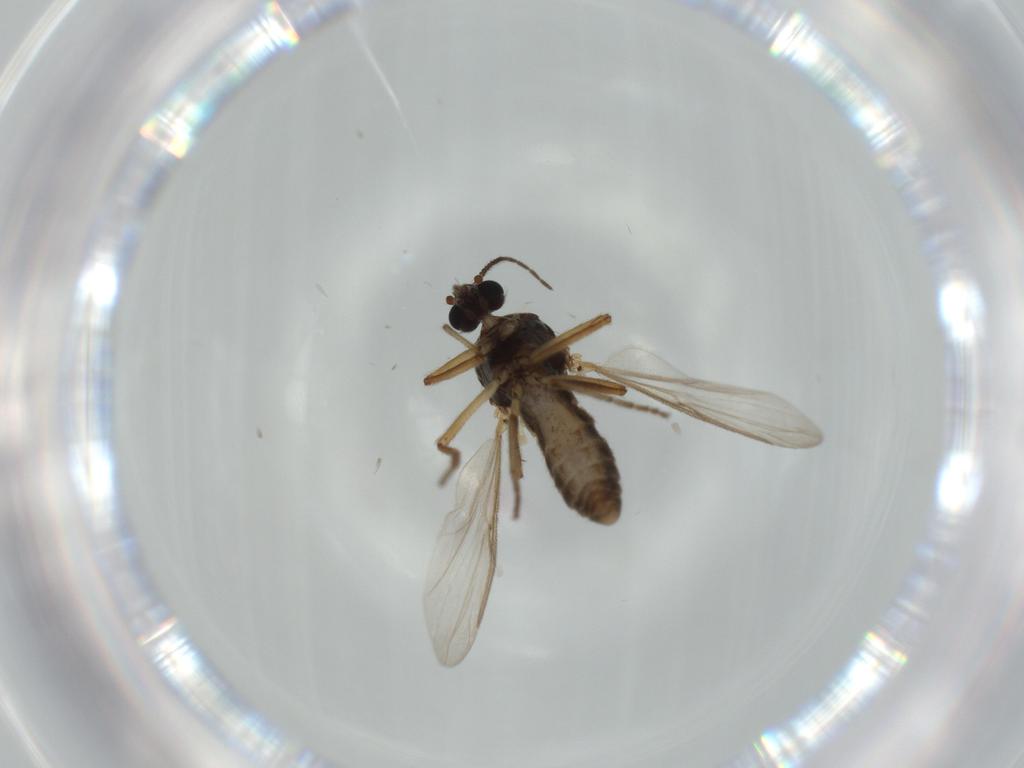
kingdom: Animalia
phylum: Arthropoda
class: Insecta
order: Diptera
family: Ceratopogonidae
